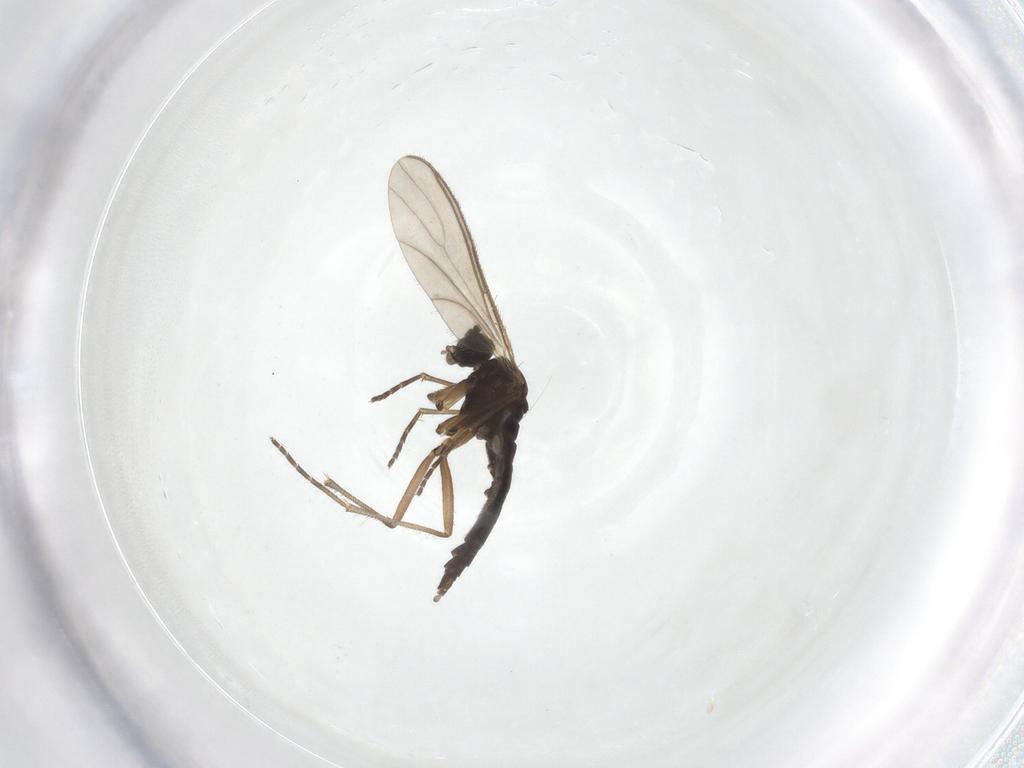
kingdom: Animalia
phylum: Arthropoda
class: Insecta
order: Diptera
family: Sciaridae
